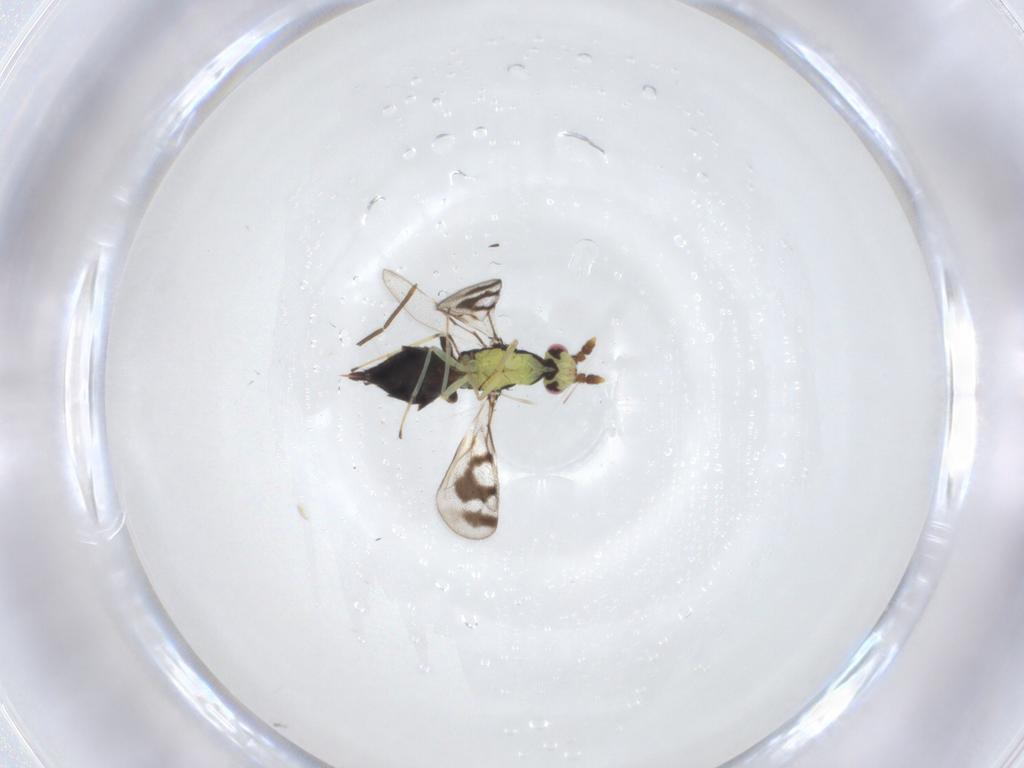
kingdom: Animalia
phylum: Arthropoda
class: Insecta
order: Hymenoptera
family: Eulophidae
